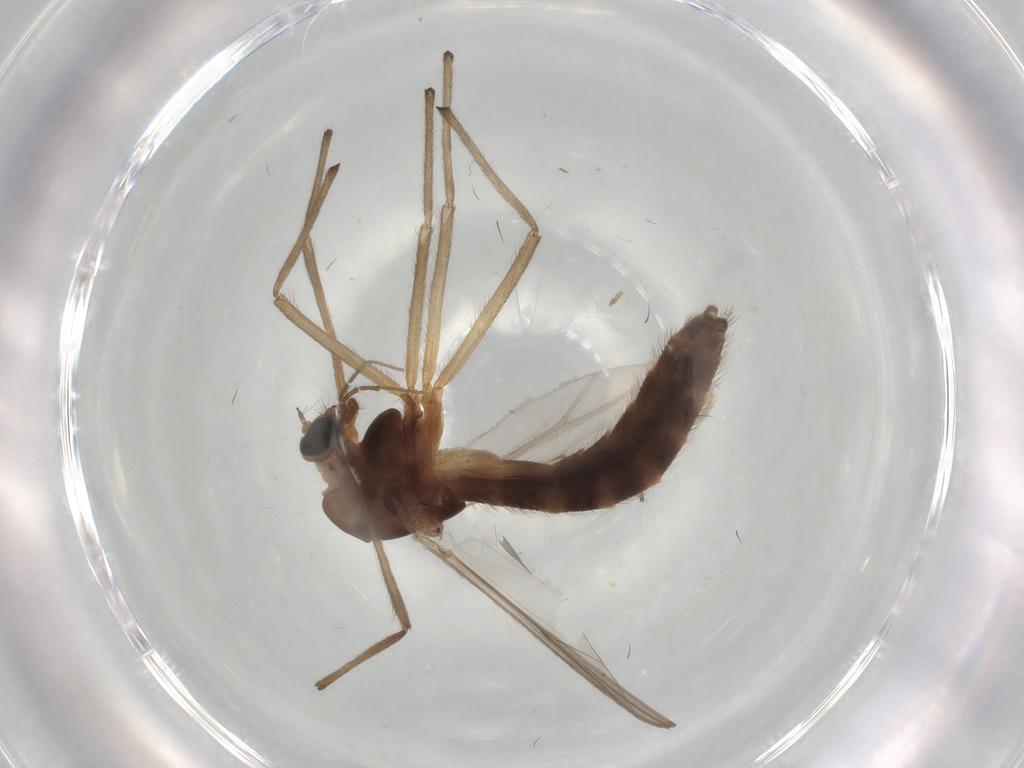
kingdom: Animalia
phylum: Arthropoda
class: Insecta
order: Diptera
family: Chironomidae
